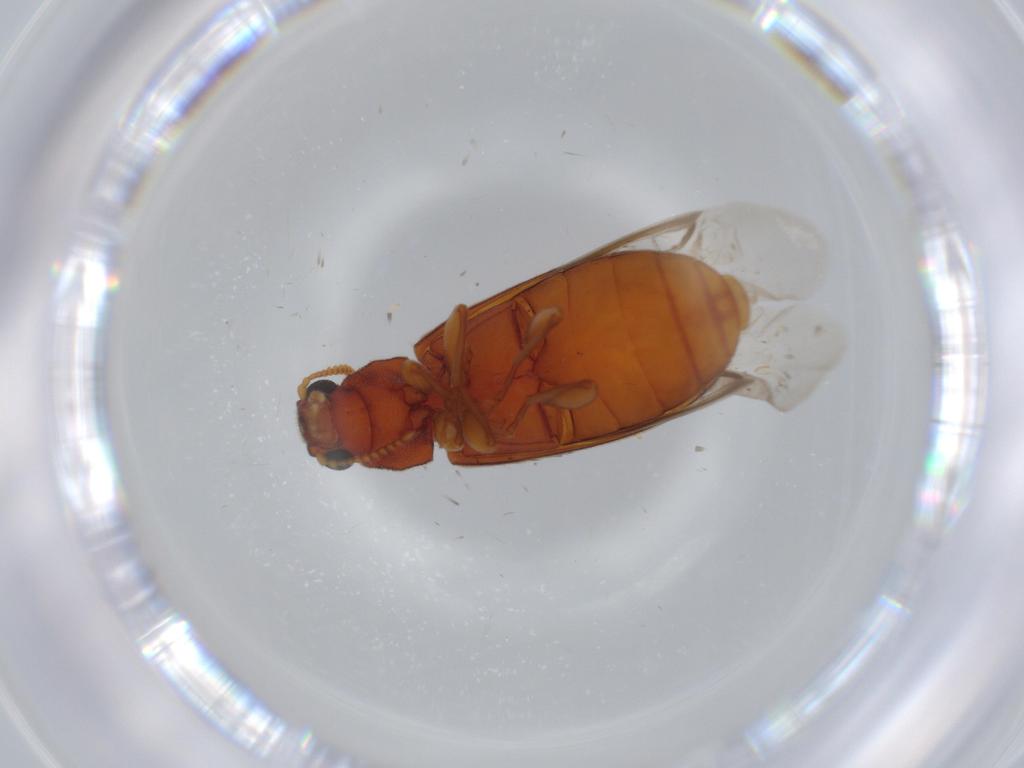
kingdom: Animalia
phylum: Arthropoda
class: Insecta
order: Coleoptera
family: Mycteridae
